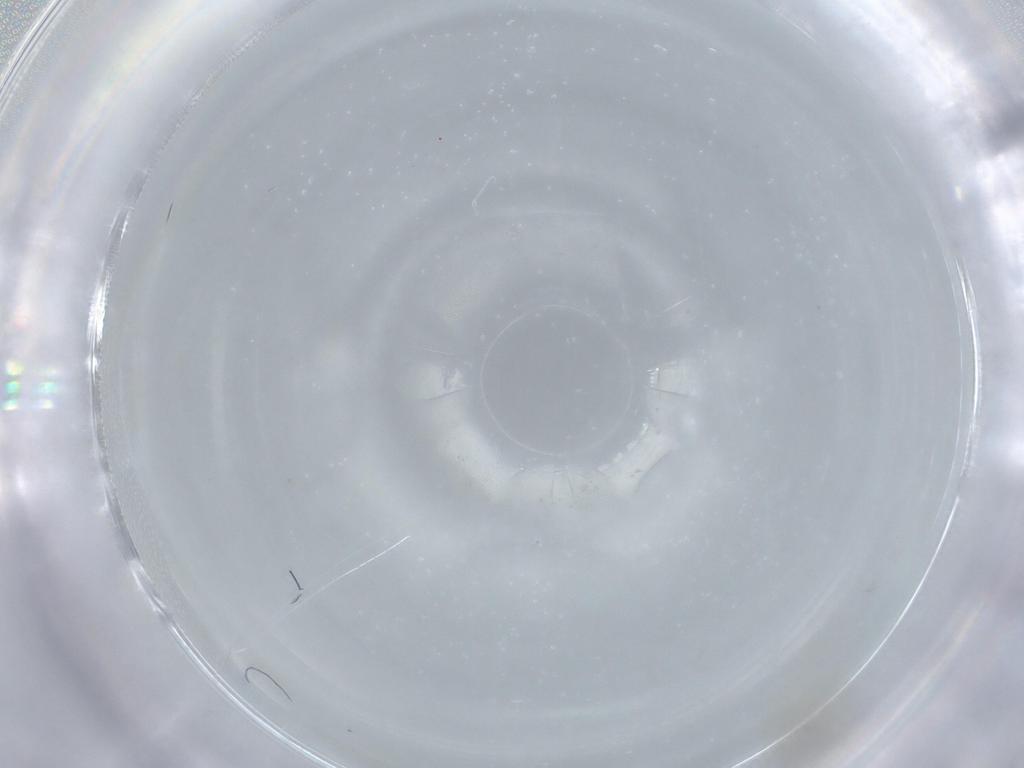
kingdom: Animalia
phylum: Arthropoda
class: Insecta
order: Diptera
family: Cecidomyiidae
